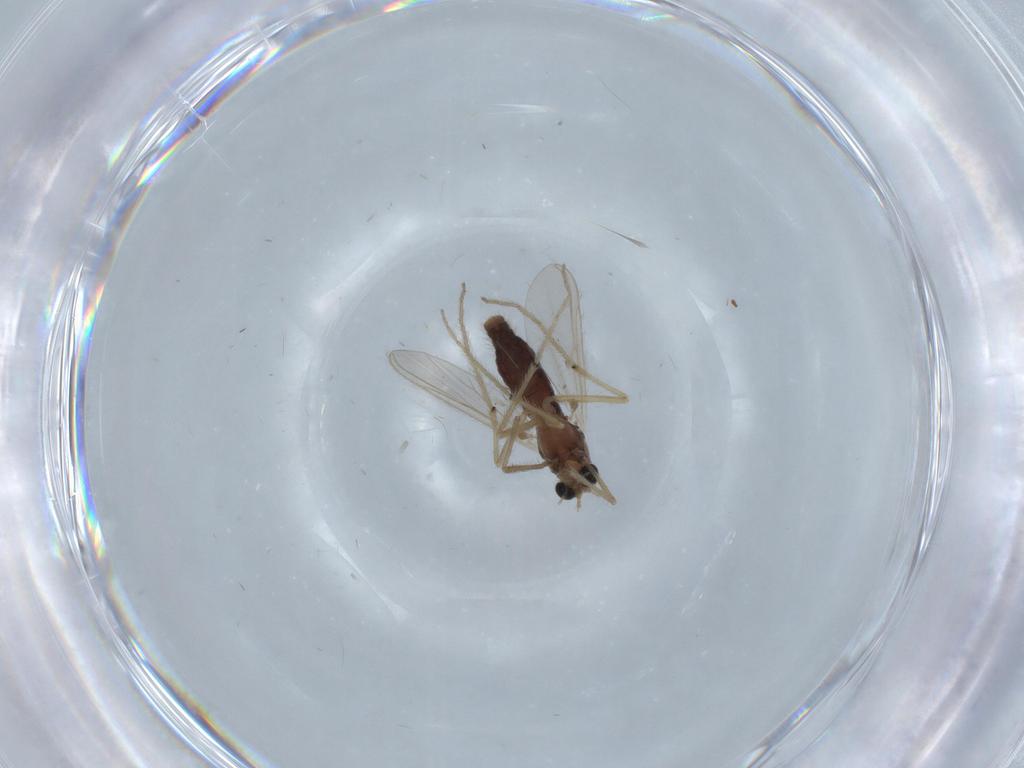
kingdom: Animalia
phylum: Arthropoda
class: Insecta
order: Diptera
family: Chironomidae
